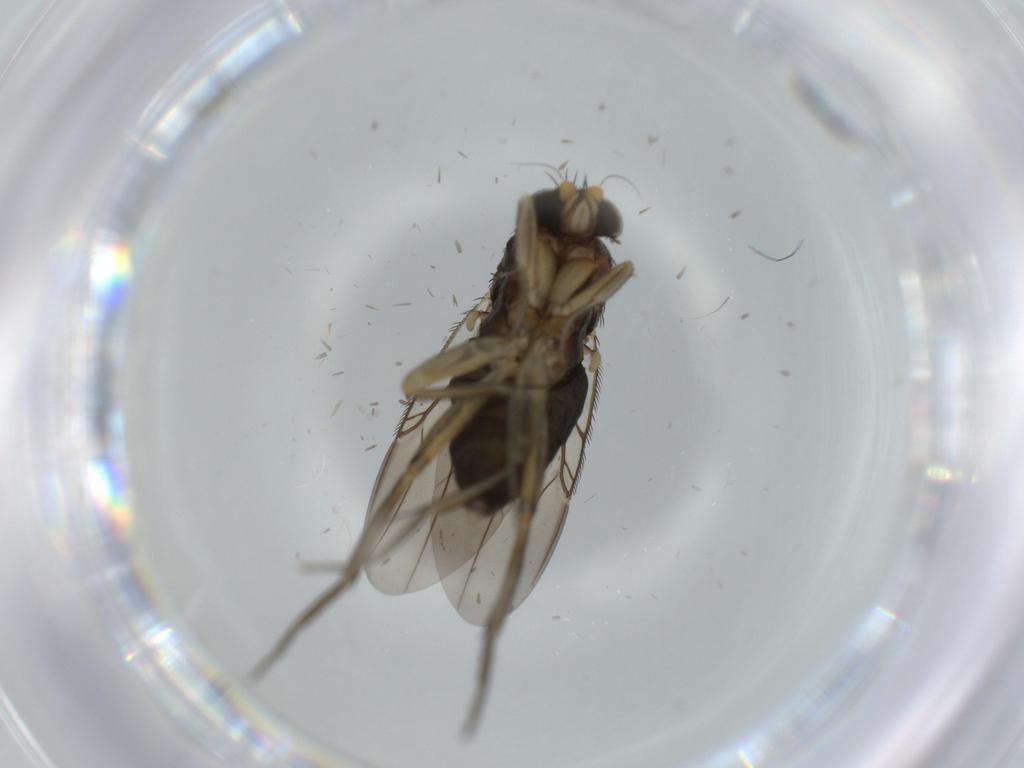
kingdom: Animalia
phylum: Arthropoda
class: Insecta
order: Diptera
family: Phoridae
